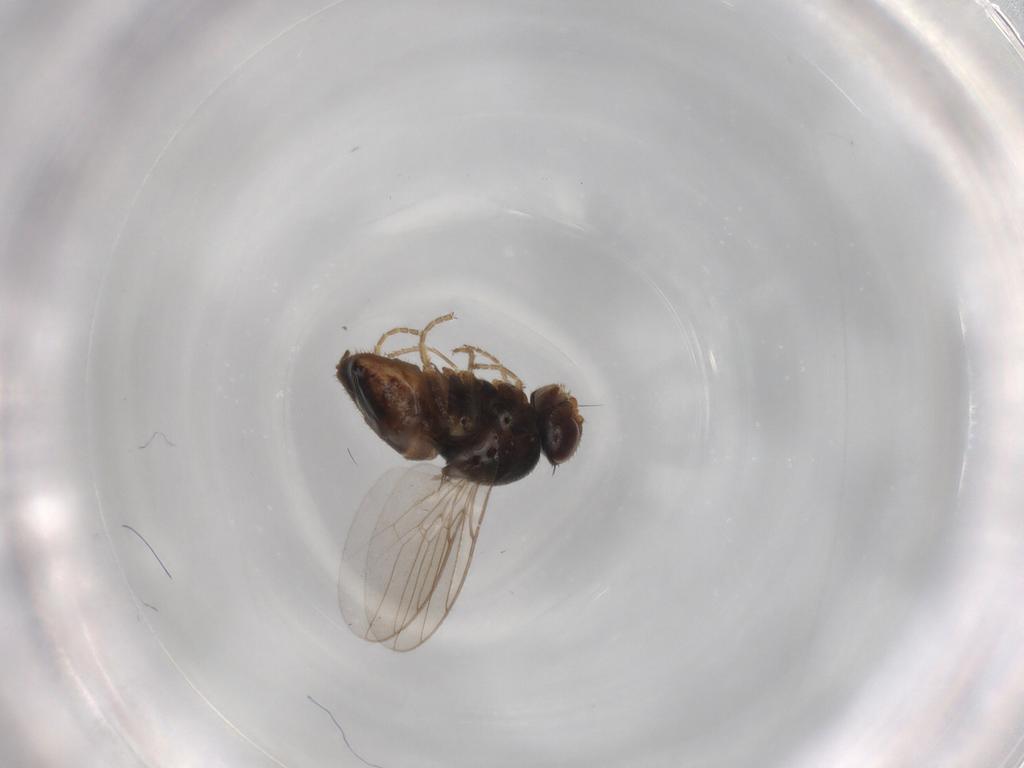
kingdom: Animalia
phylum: Arthropoda
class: Insecta
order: Diptera
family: Chloropidae
